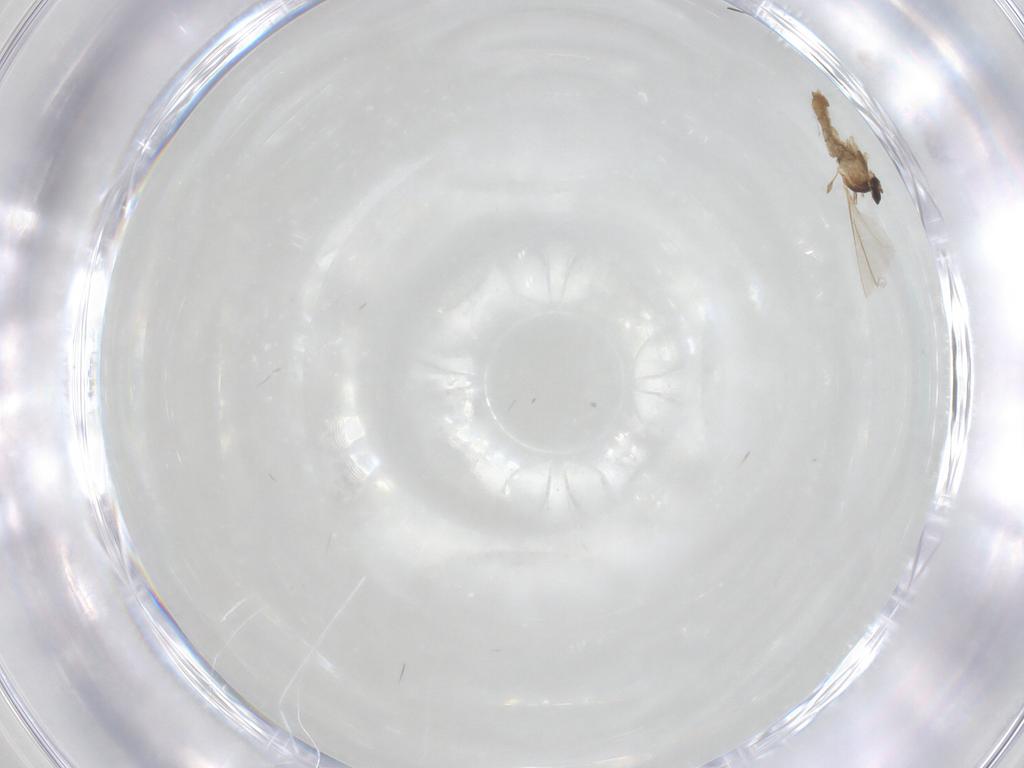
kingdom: Animalia
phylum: Arthropoda
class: Insecta
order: Diptera
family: Cecidomyiidae
